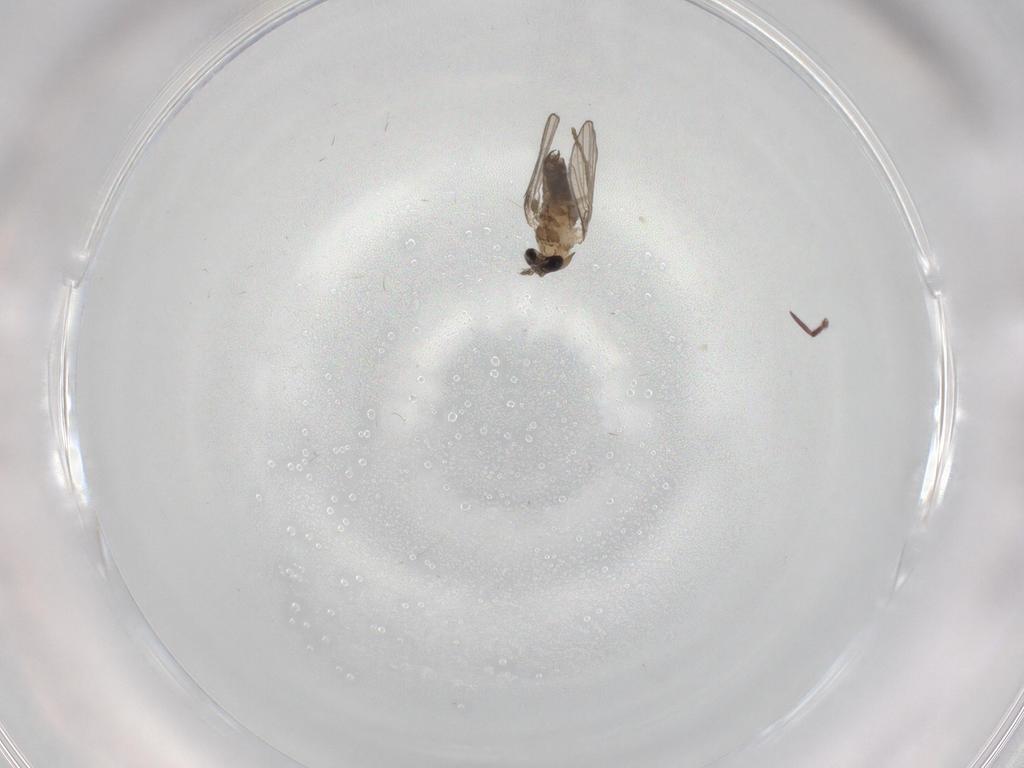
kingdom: Animalia
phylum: Arthropoda
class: Insecta
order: Diptera
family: Psychodidae
